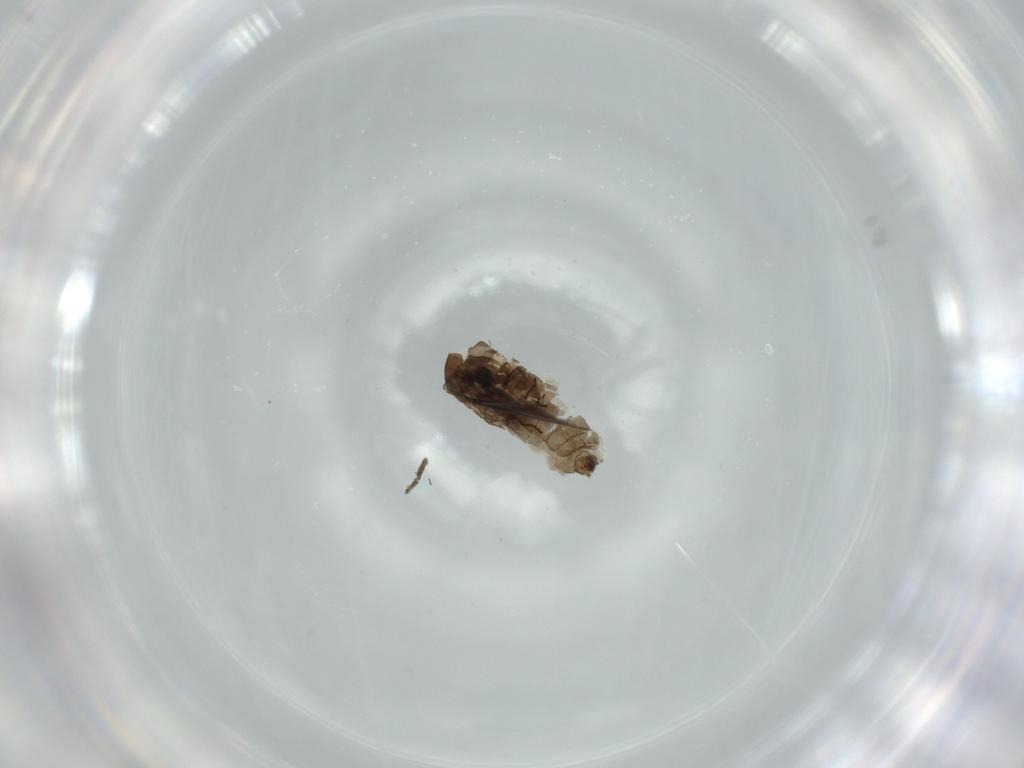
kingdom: Animalia
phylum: Arthropoda
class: Insecta
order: Diptera
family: Psychodidae
